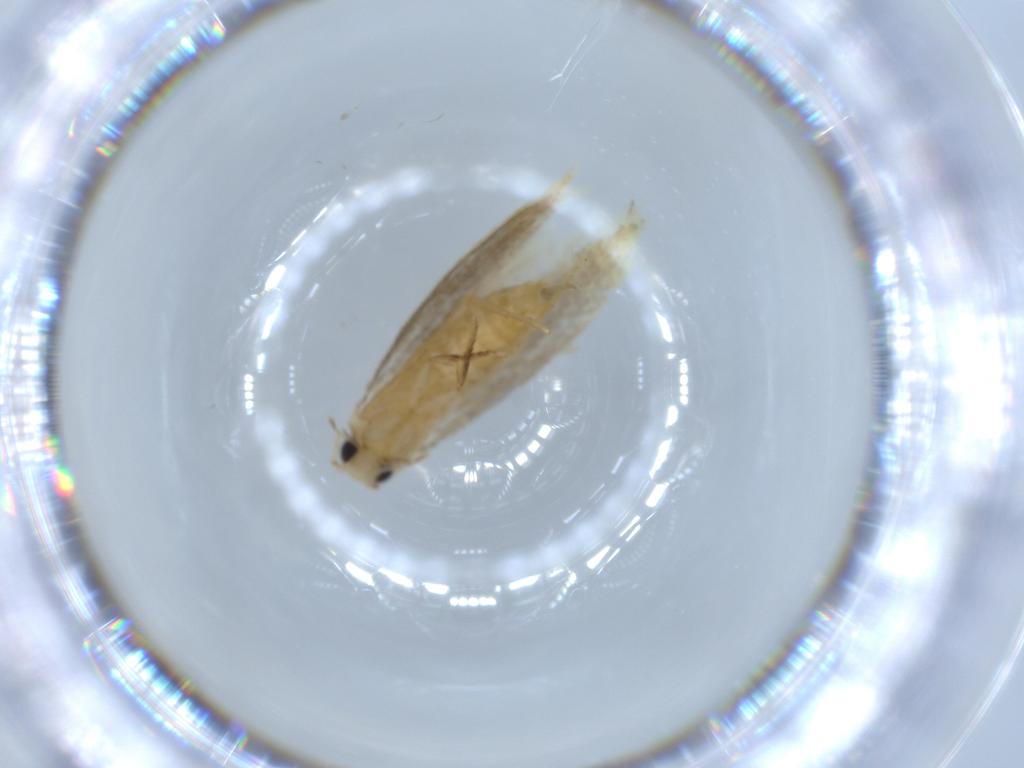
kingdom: Animalia
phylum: Arthropoda
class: Insecta
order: Lepidoptera
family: Tineidae
